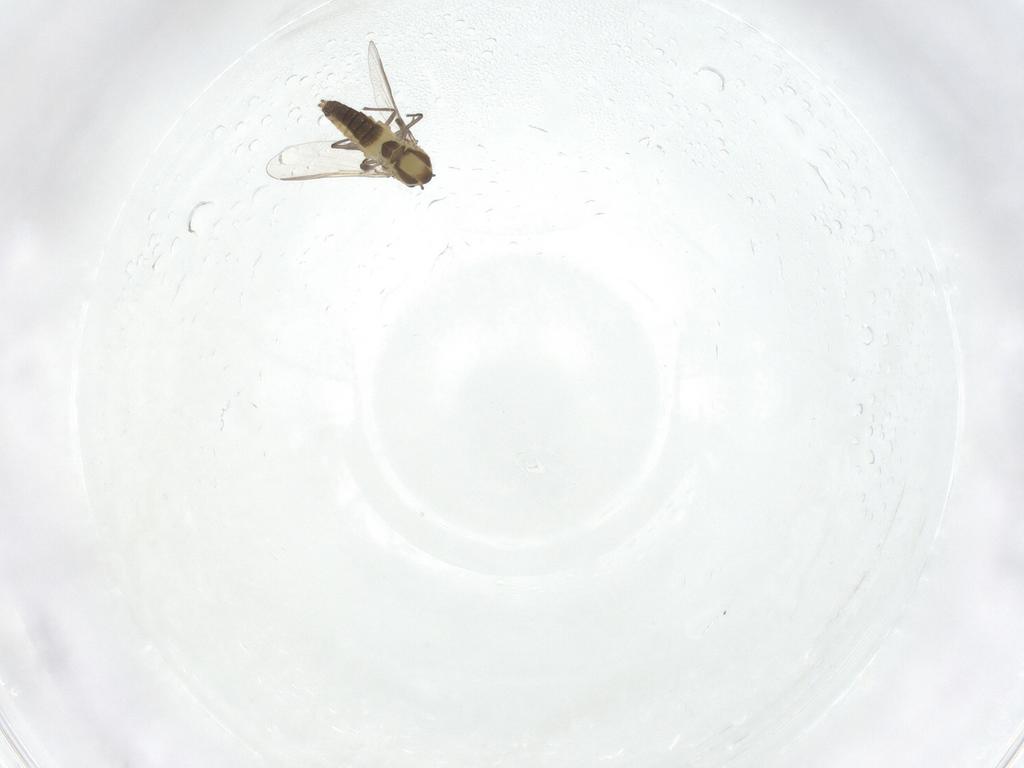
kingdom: Animalia
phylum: Arthropoda
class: Insecta
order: Diptera
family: Chironomidae
